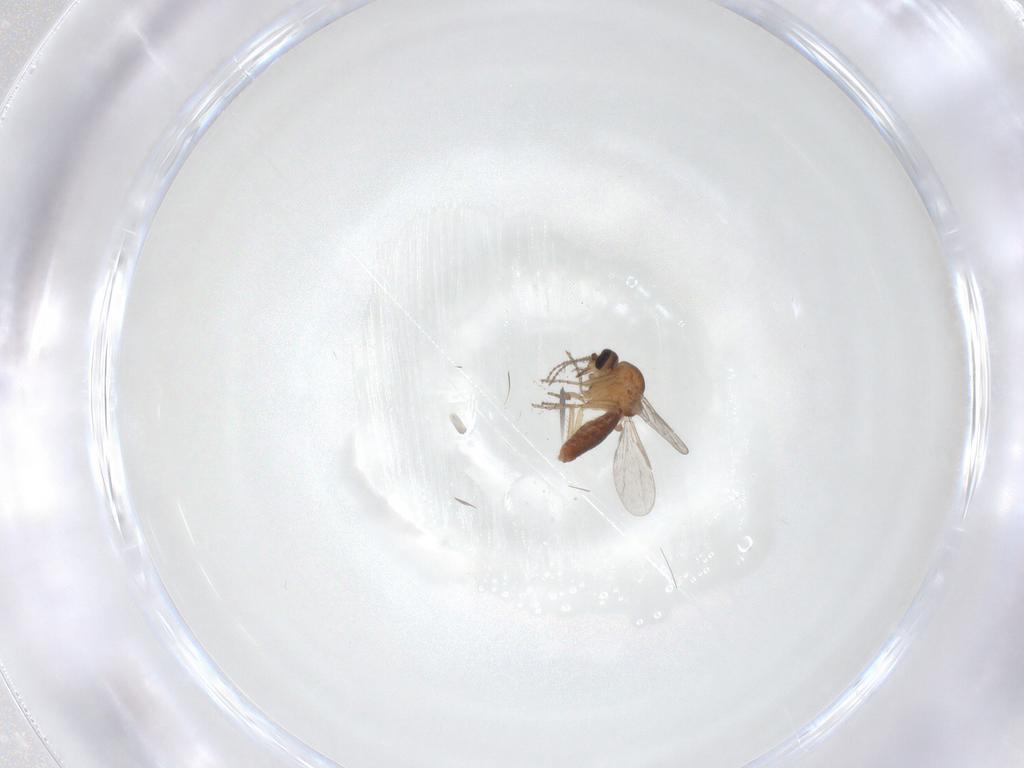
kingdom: Animalia
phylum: Arthropoda
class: Insecta
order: Diptera
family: Ceratopogonidae
